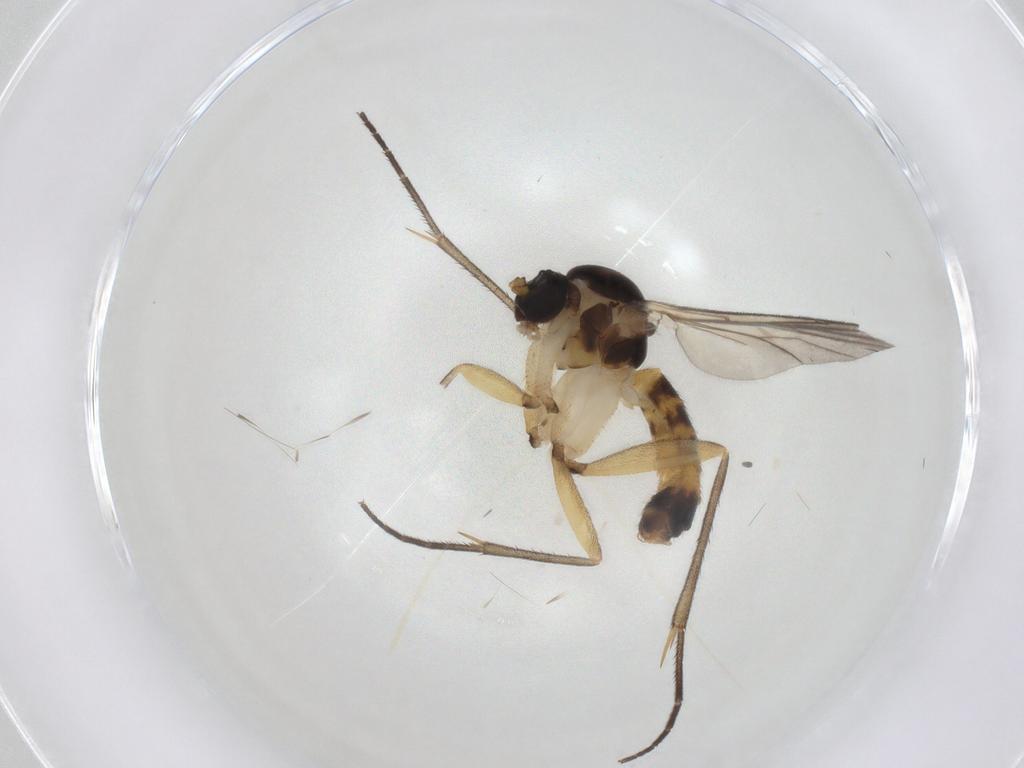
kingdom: Animalia
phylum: Arthropoda
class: Insecta
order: Diptera
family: Mycetophilidae
